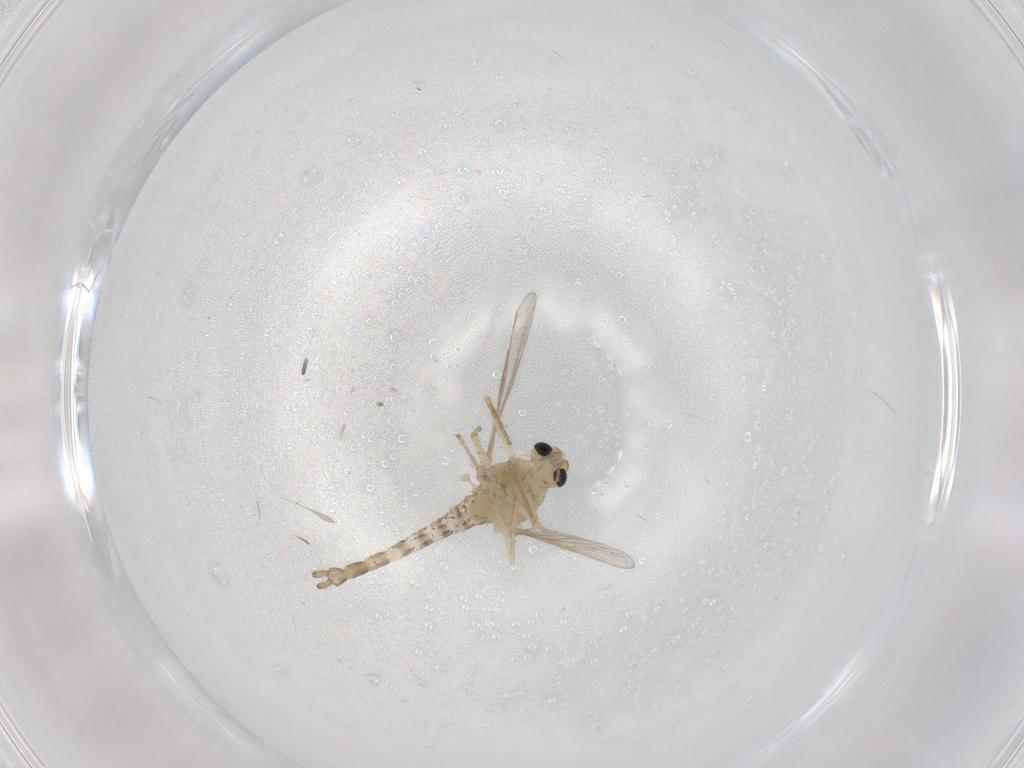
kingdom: Animalia
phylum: Arthropoda
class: Insecta
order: Diptera
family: Chironomidae
